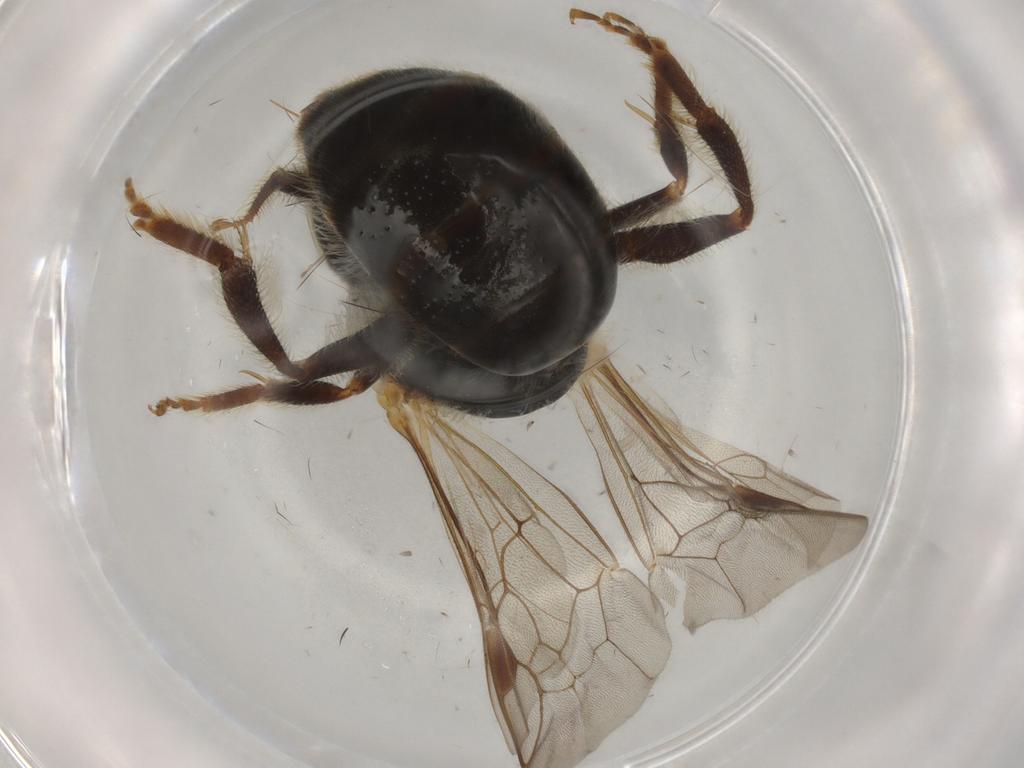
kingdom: Animalia
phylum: Arthropoda
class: Insecta
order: Hymenoptera
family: Halictidae
